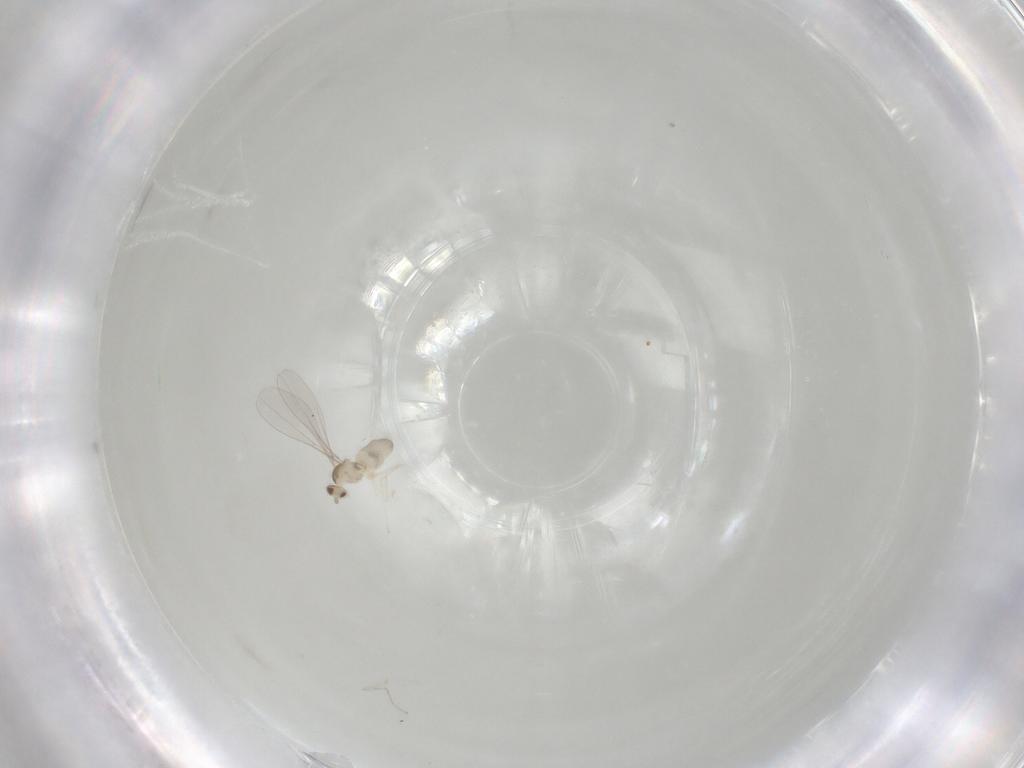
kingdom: Animalia
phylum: Arthropoda
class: Insecta
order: Diptera
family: Cecidomyiidae
